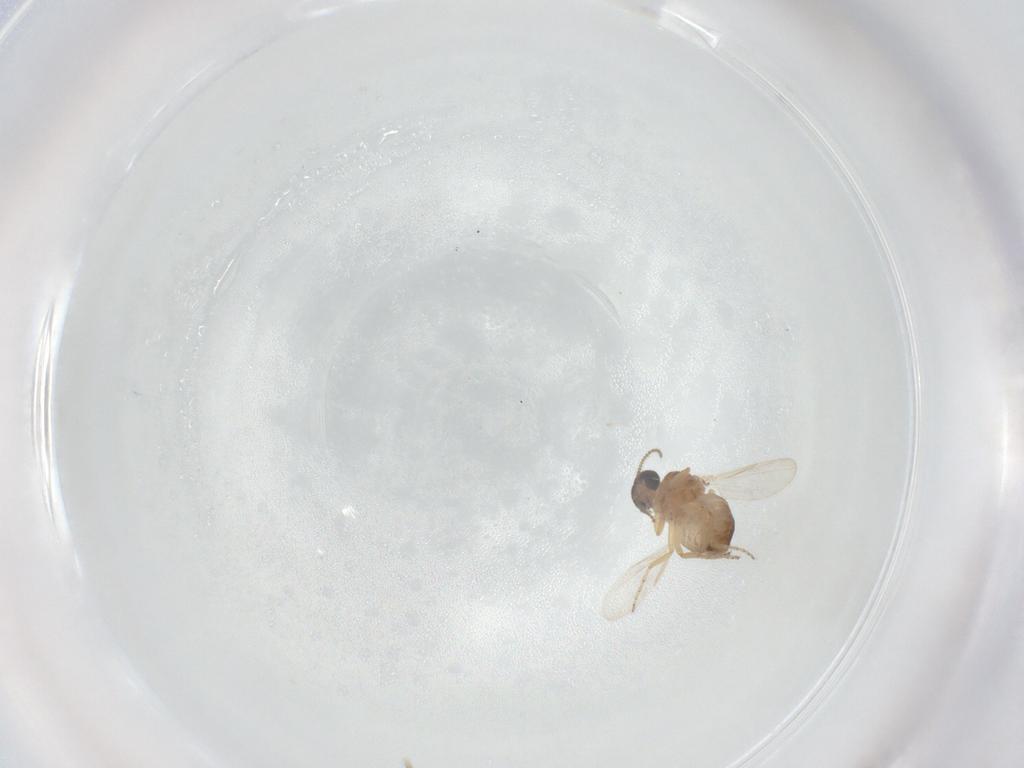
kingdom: Animalia
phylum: Arthropoda
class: Insecta
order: Diptera
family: Ceratopogonidae
